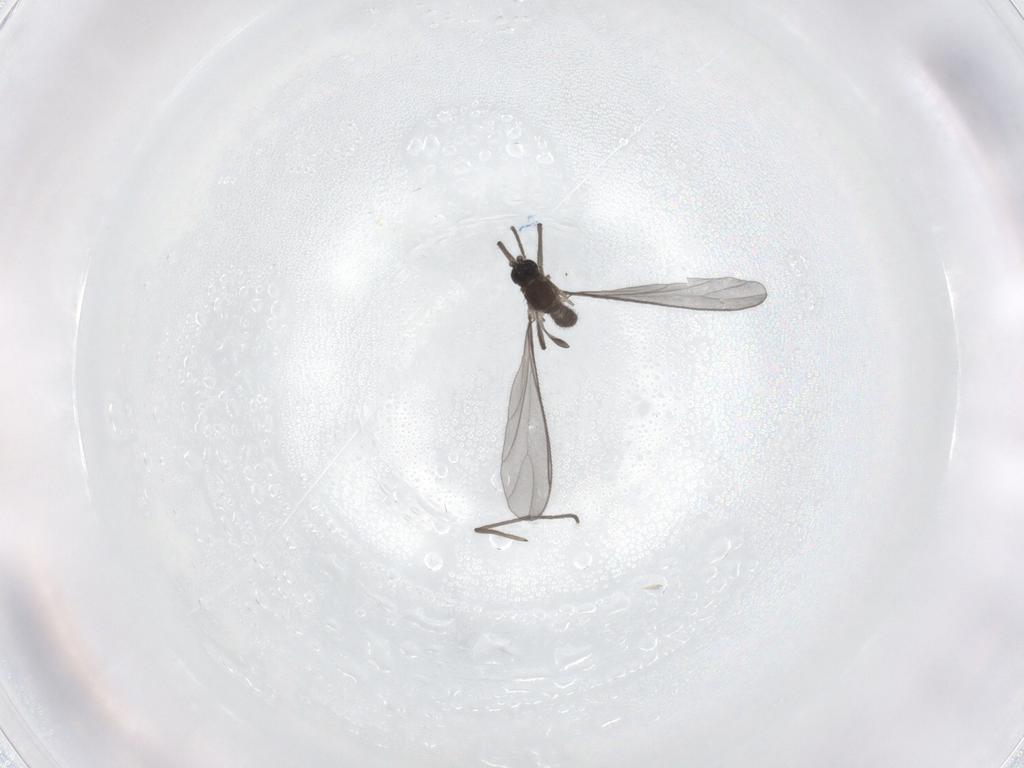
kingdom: Animalia
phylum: Arthropoda
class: Insecta
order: Diptera
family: Sciaridae
